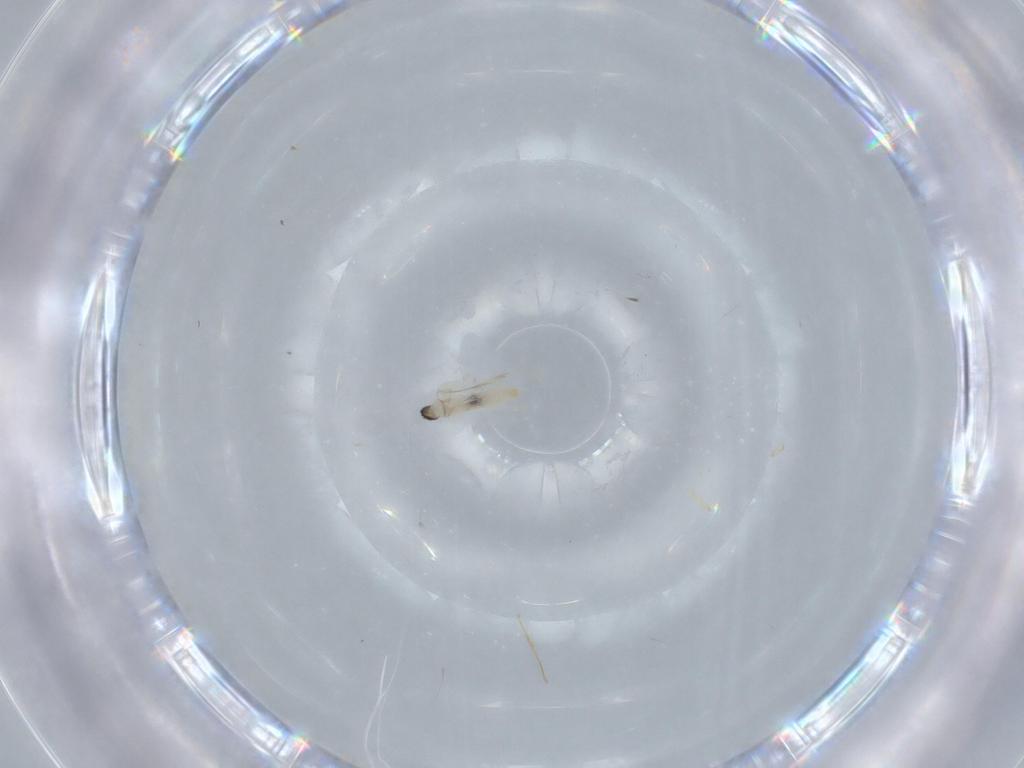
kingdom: Animalia
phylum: Arthropoda
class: Insecta
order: Diptera
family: Cecidomyiidae
